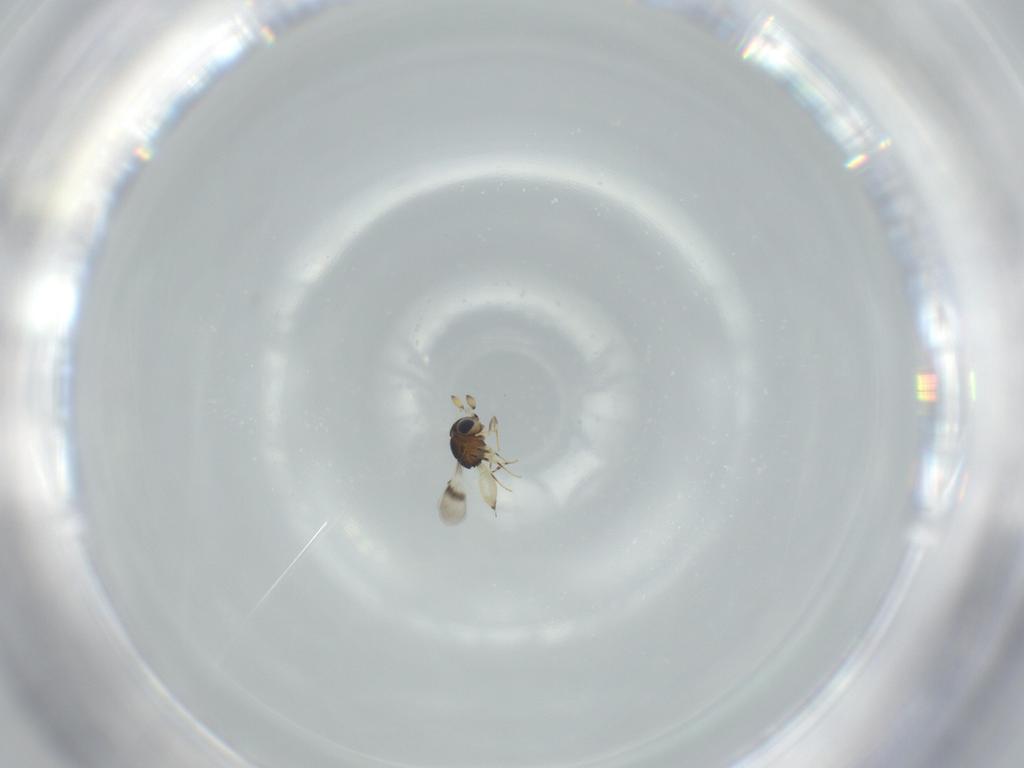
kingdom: Animalia
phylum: Arthropoda
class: Insecta
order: Hymenoptera
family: Scelionidae
